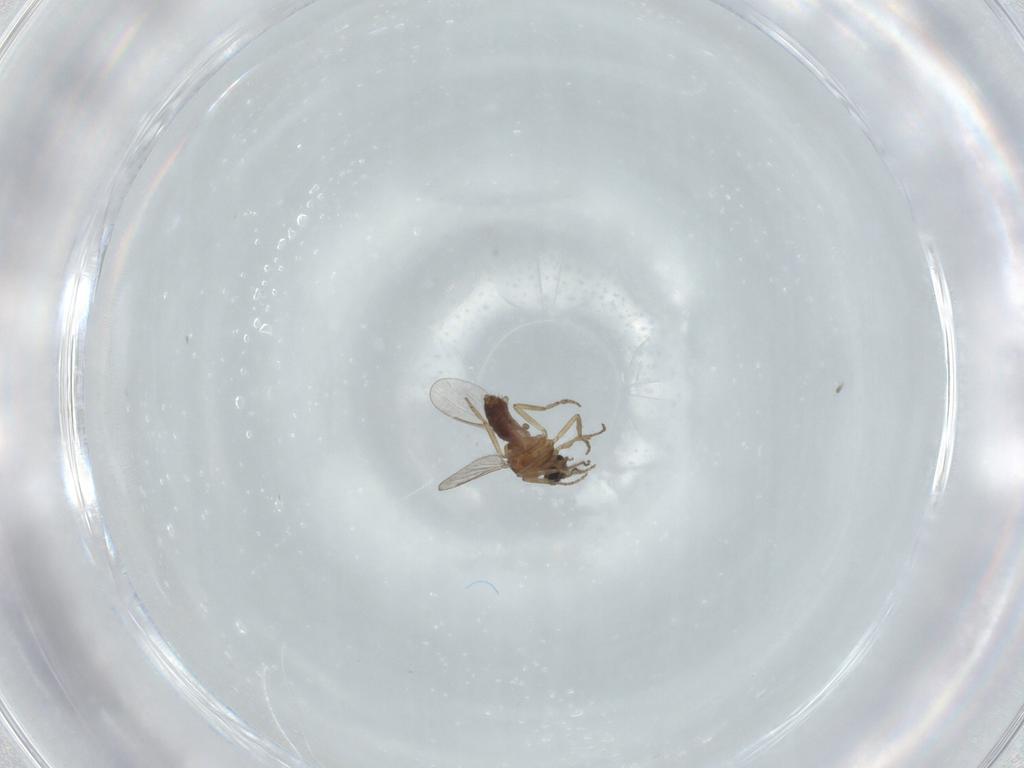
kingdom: Animalia
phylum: Arthropoda
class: Insecta
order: Diptera
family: Ceratopogonidae
